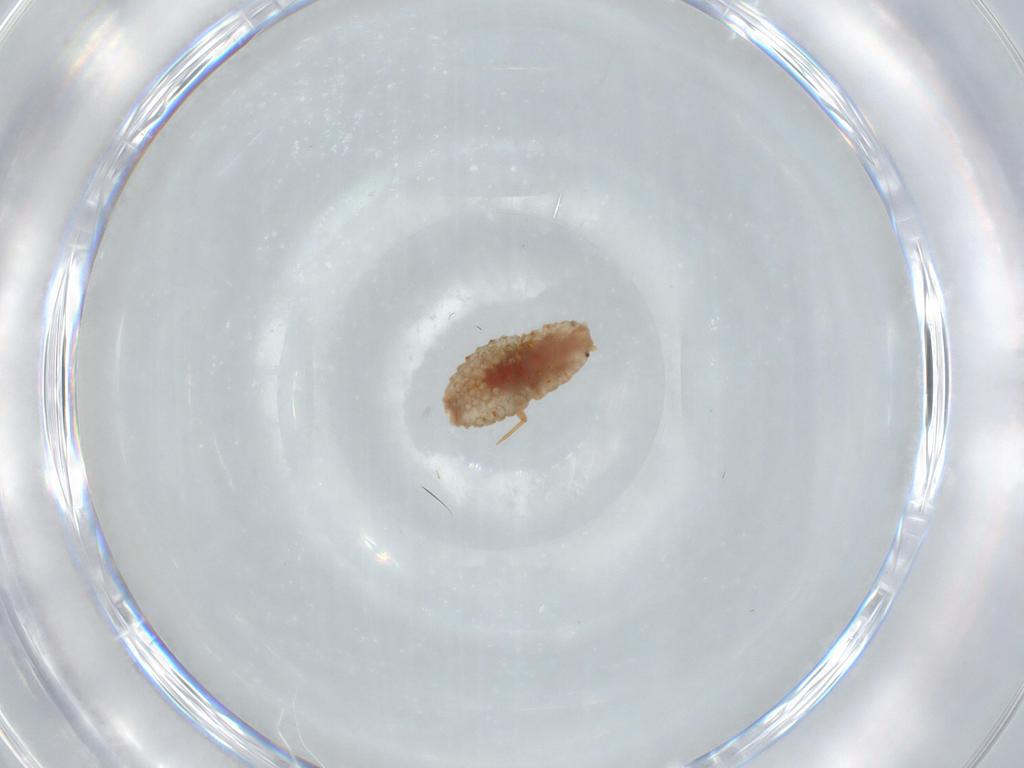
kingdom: Animalia
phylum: Arthropoda
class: Insecta
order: Hemiptera
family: Pseudococcidae
